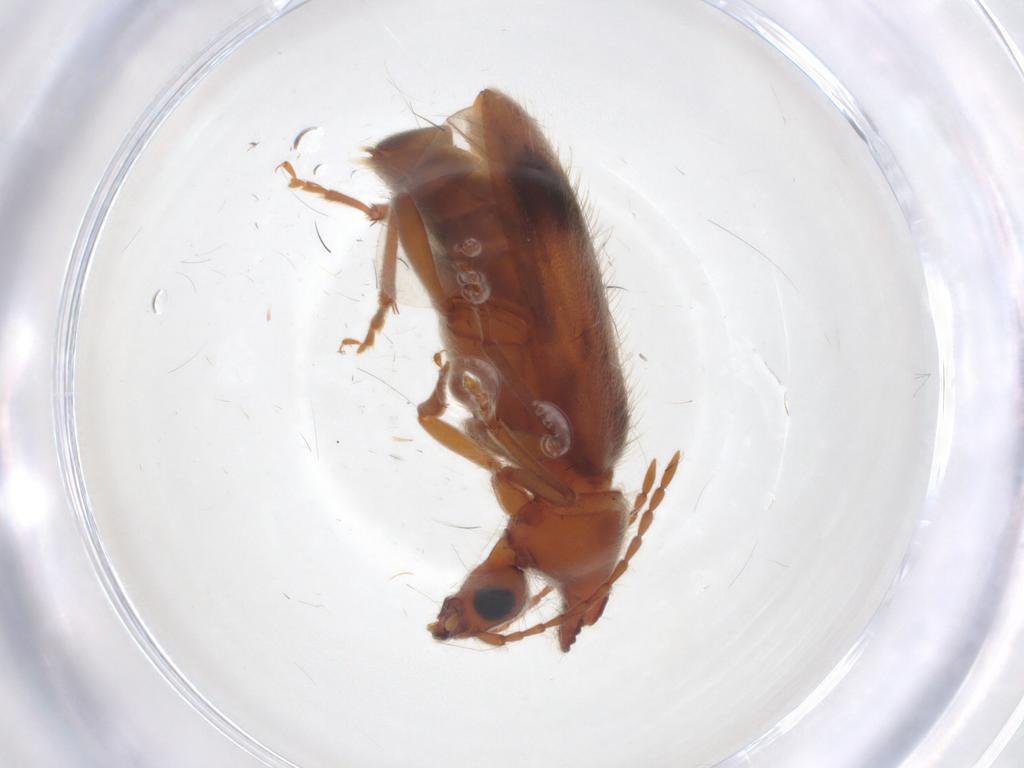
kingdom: Animalia
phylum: Arthropoda
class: Insecta
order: Coleoptera
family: Anthicidae
